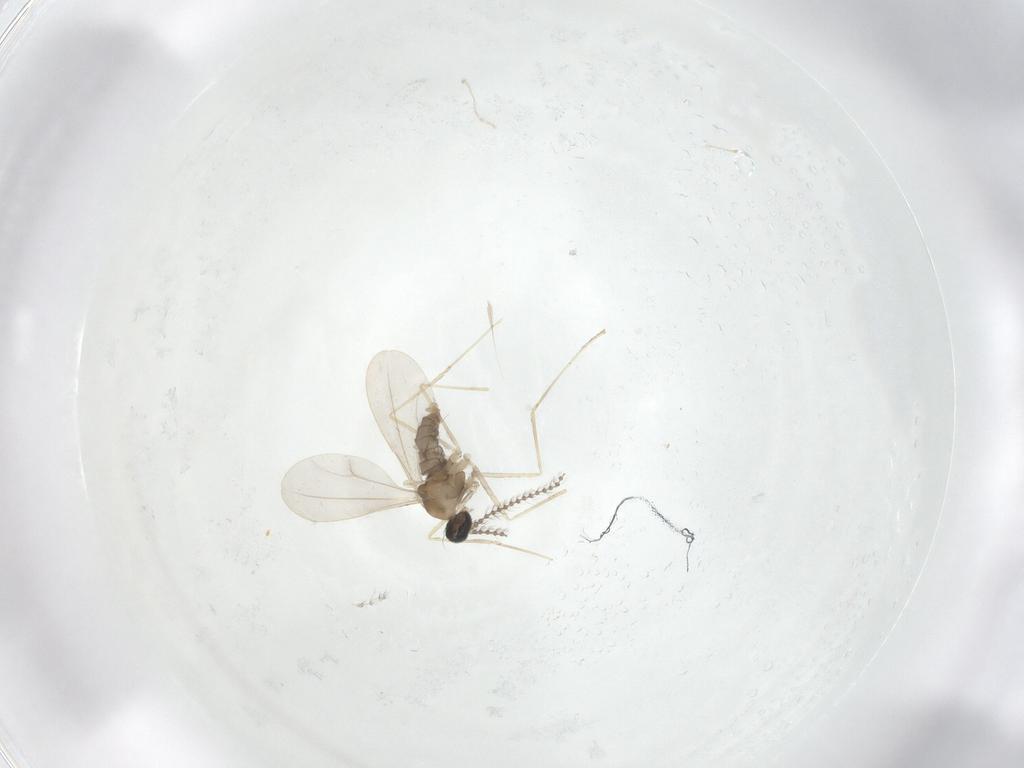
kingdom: Animalia
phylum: Arthropoda
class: Insecta
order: Diptera
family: Cecidomyiidae
